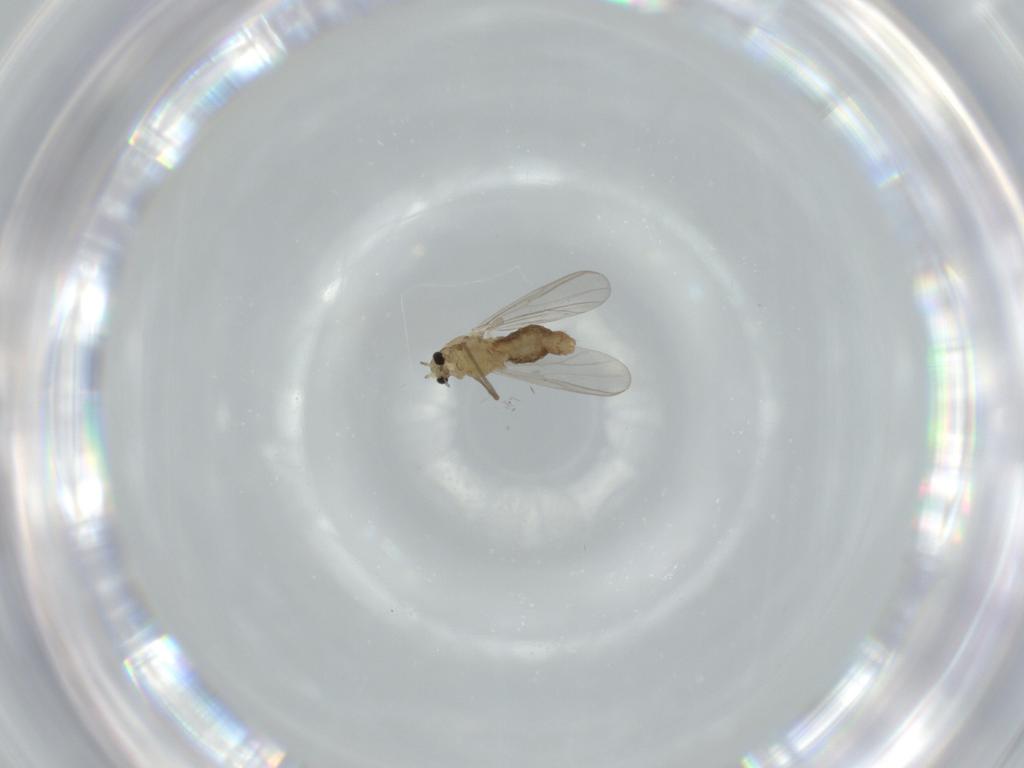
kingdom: Animalia
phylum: Arthropoda
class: Insecta
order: Diptera
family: Chironomidae
